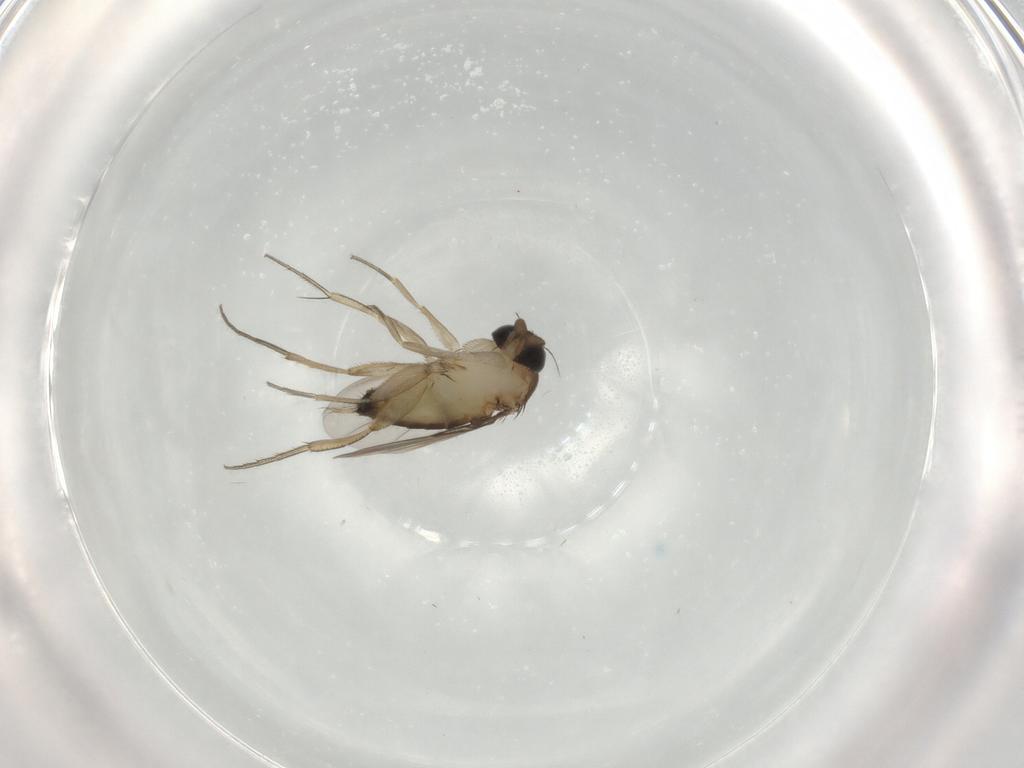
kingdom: Animalia
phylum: Arthropoda
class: Insecta
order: Diptera
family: Phoridae
